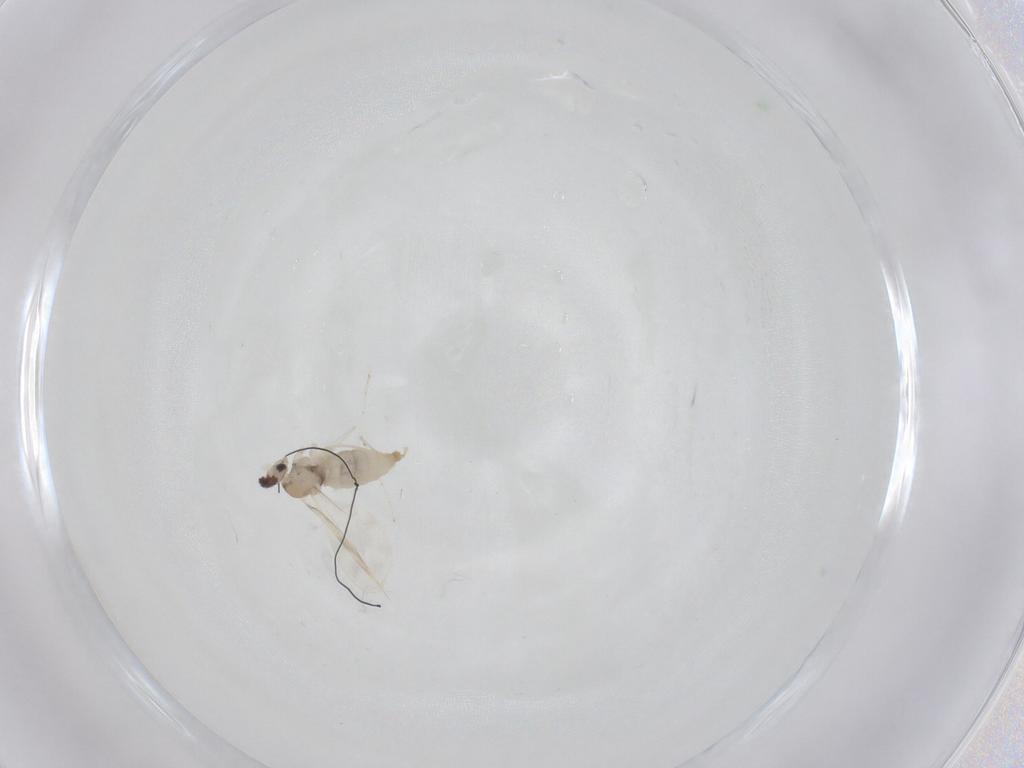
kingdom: Animalia
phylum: Arthropoda
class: Insecta
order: Diptera
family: Cecidomyiidae
